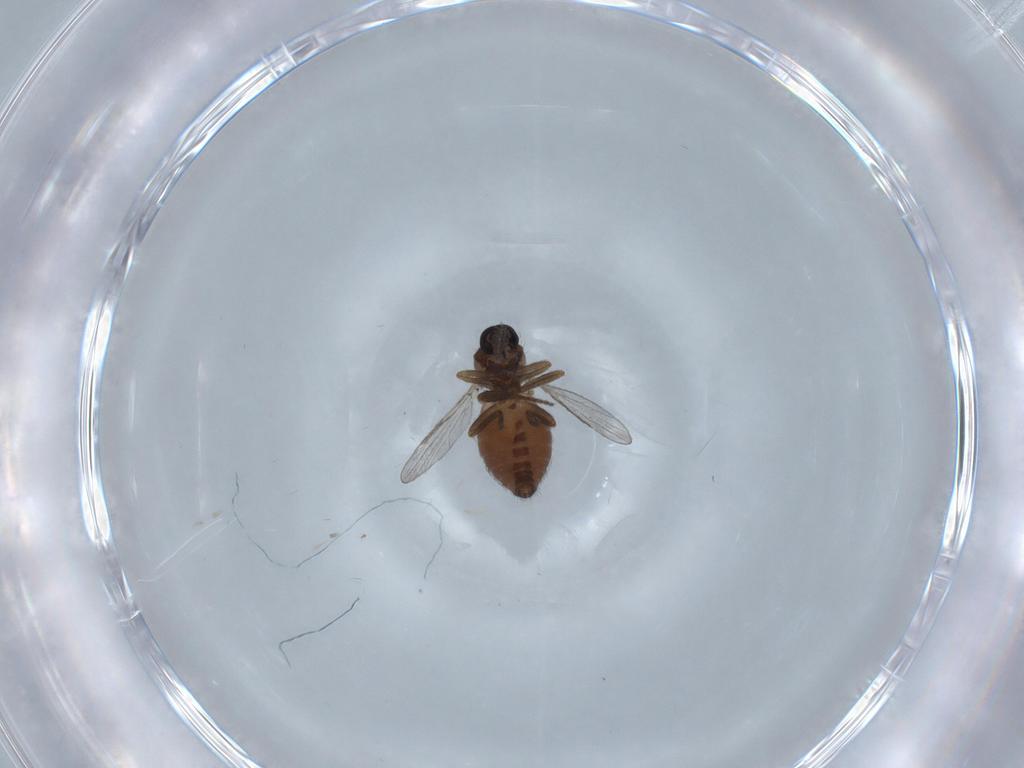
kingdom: Animalia
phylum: Arthropoda
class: Insecta
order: Diptera
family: Ceratopogonidae
